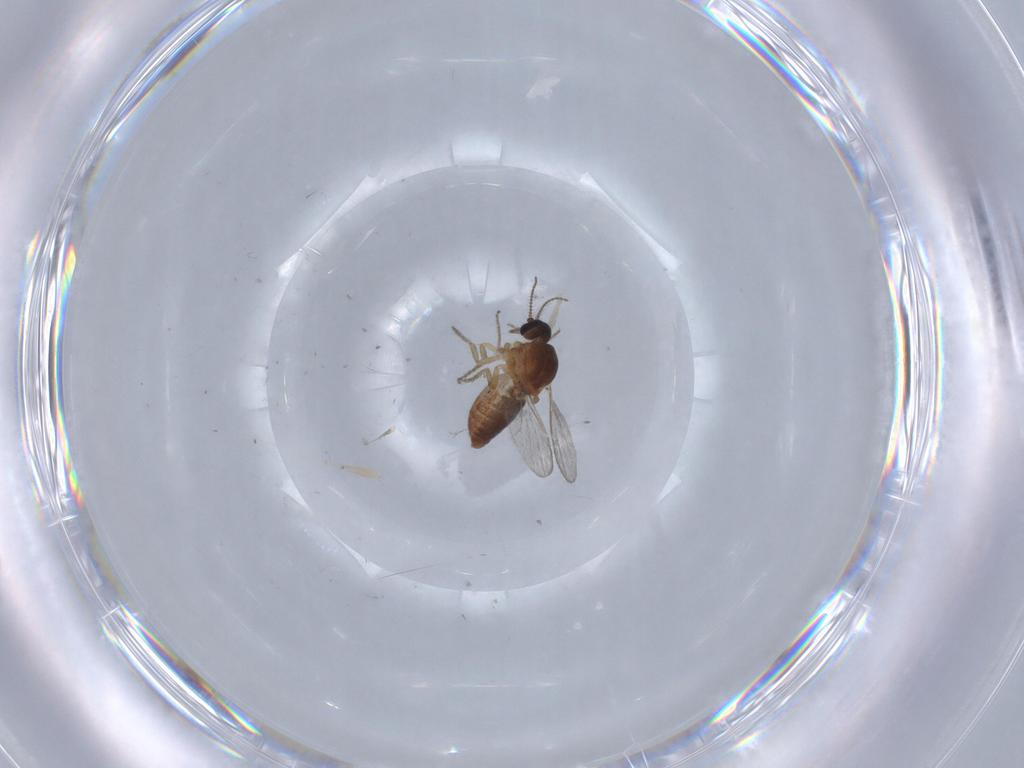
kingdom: Animalia
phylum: Arthropoda
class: Insecta
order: Diptera
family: Ceratopogonidae
